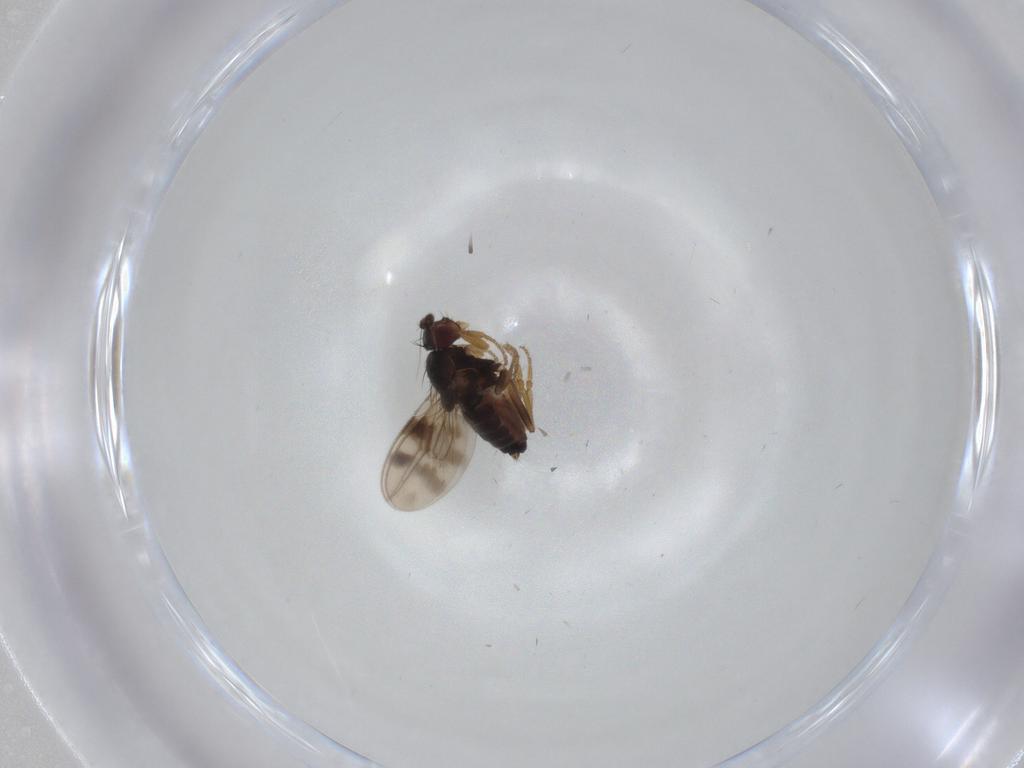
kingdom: Animalia
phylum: Arthropoda
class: Insecta
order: Diptera
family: Sphaeroceridae
